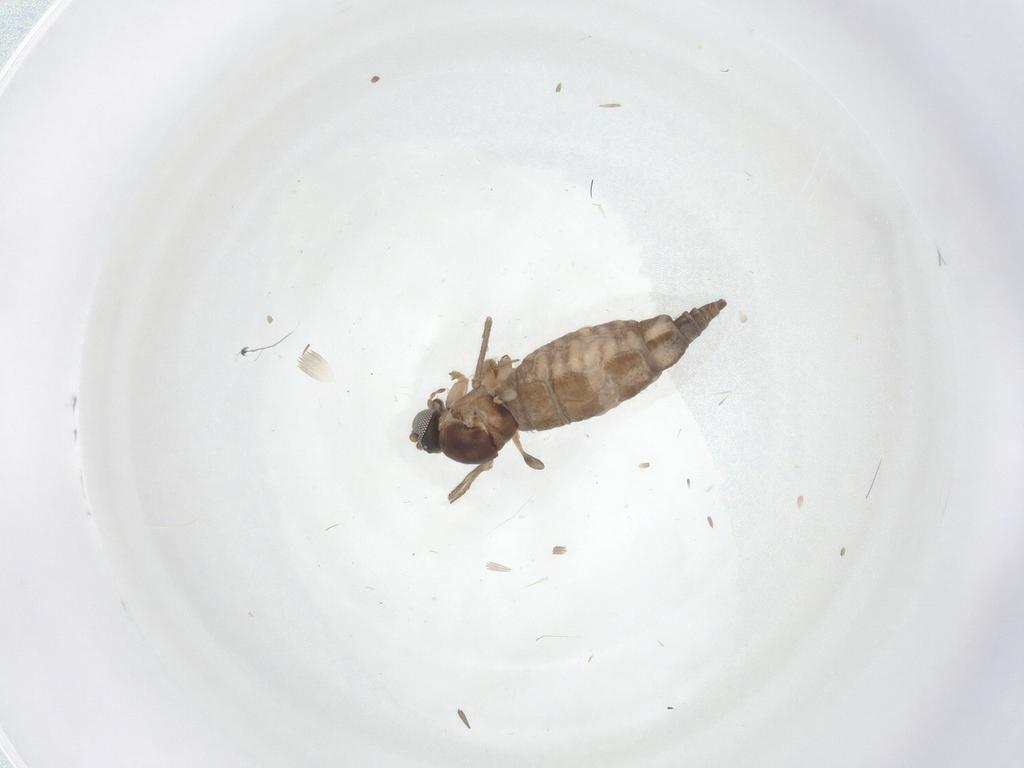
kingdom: Animalia
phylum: Arthropoda
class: Insecta
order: Diptera
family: Sciaridae
